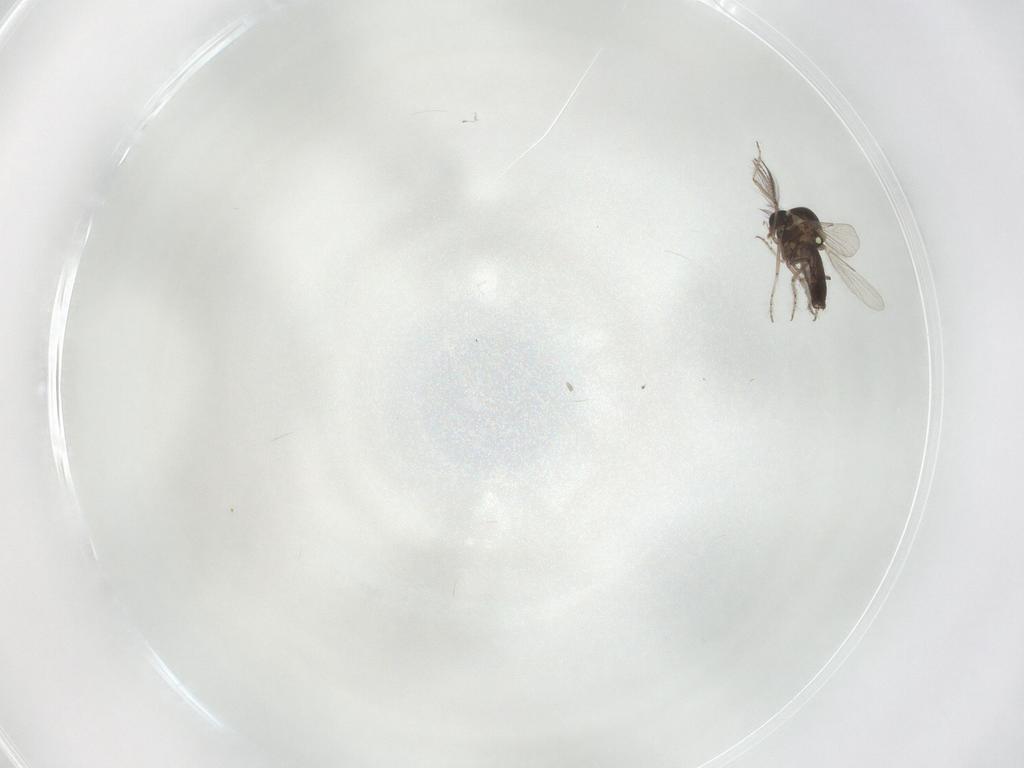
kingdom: Animalia
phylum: Arthropoda
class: Insecta
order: Diptera
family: Ceratopogonidae
